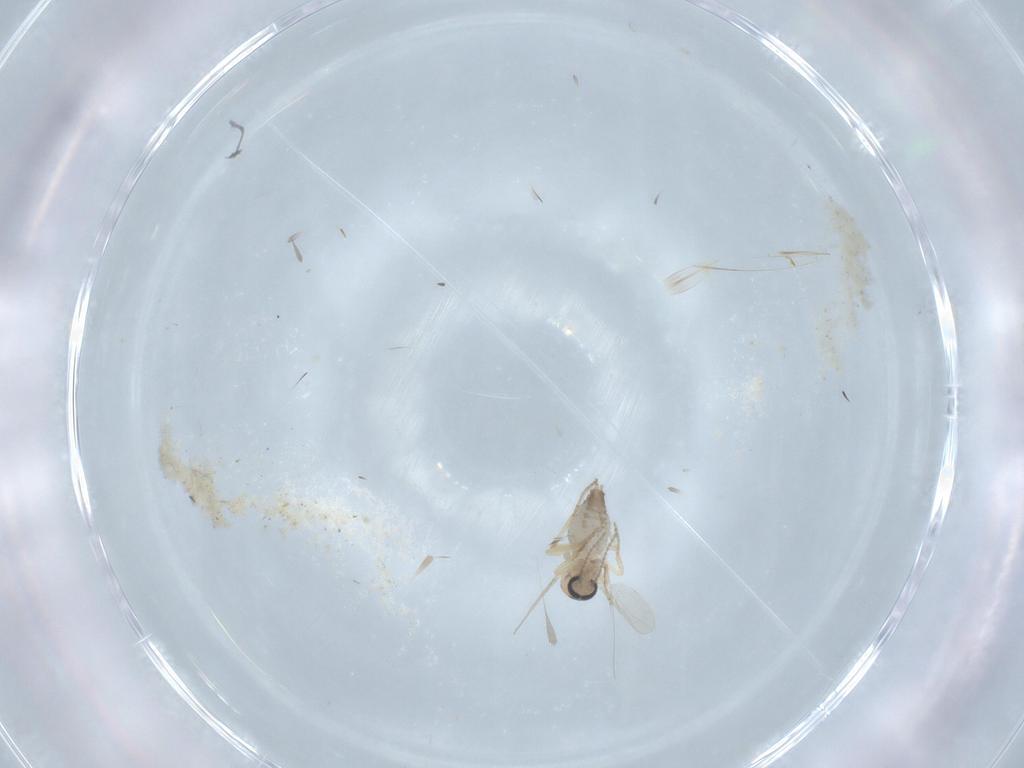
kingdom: Animalia
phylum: Arthropoda
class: Insecta
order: Diptera
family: Ceratopogonidae
